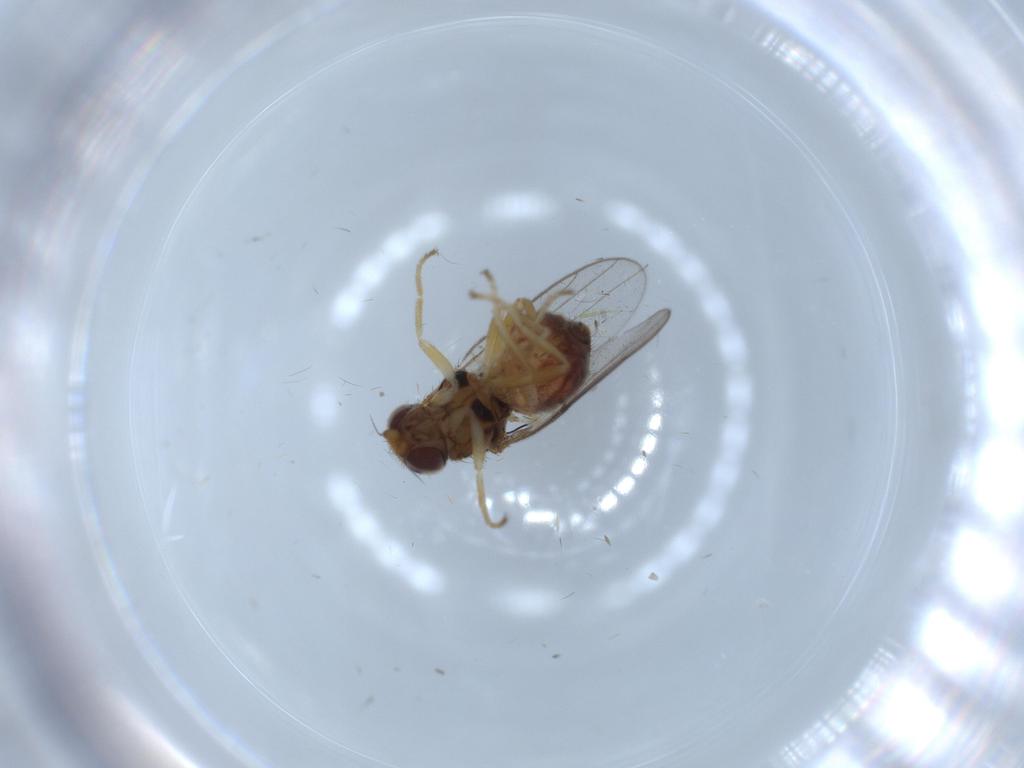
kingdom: Animalia
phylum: Arthropoda
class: Insecta
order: Diptera
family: Chloropidae
